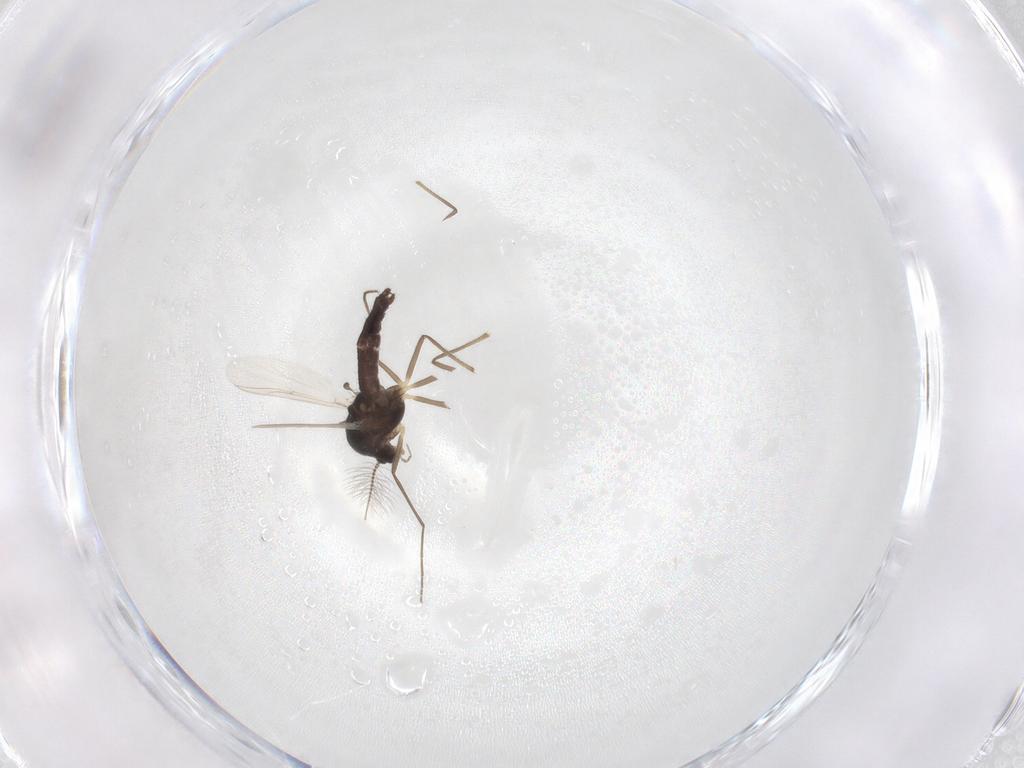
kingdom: Animalia
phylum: Arthropoda
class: Insecta
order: Diptera
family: Chironomidae
